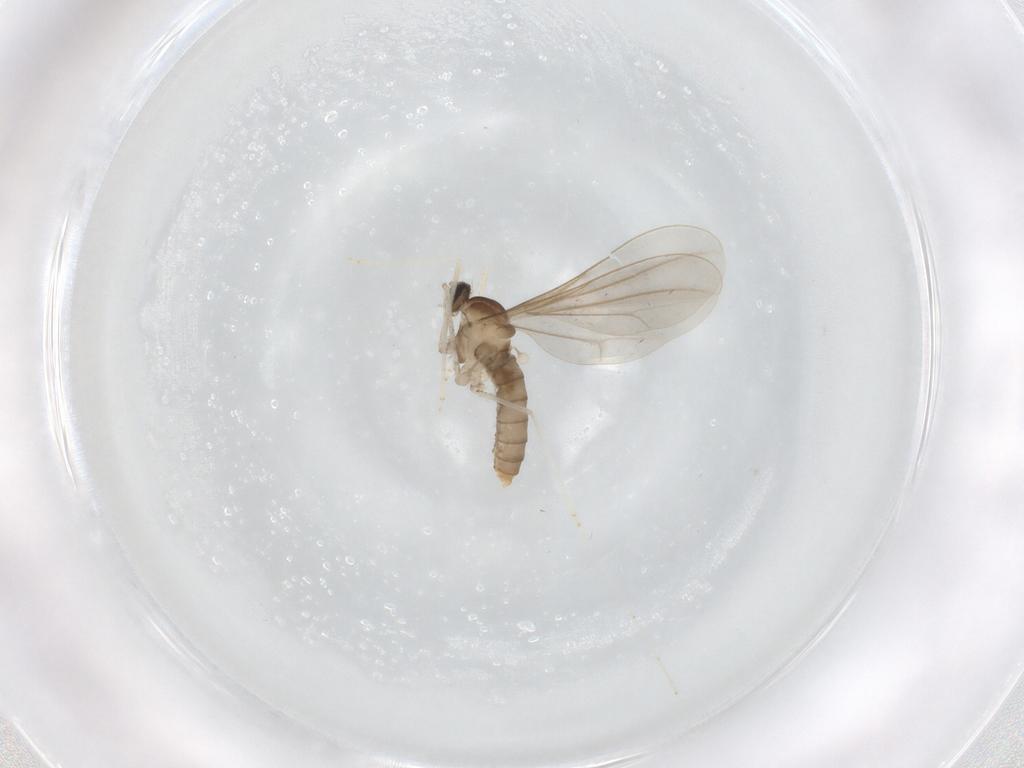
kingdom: Animalia
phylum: Arthropoda
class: Insecta
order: Diptera
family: Cecidomyiidae
